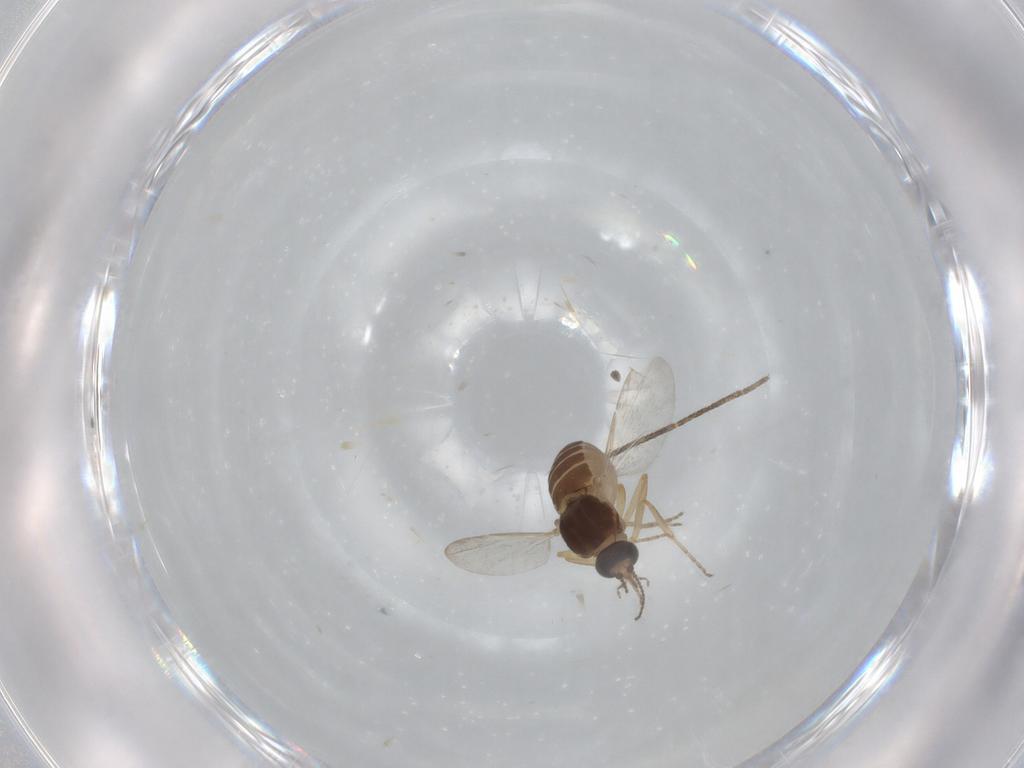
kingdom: Animalia
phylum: Arthropoda
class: Insecta
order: Diptera
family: Ceratopogonidae
